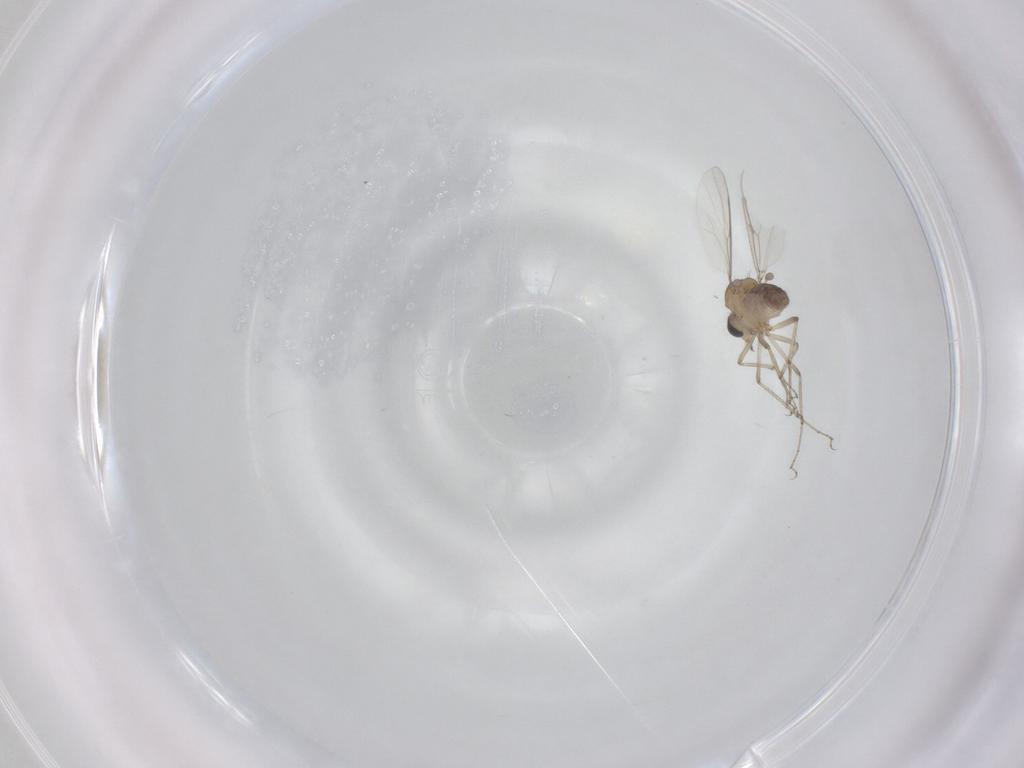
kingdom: Animalia
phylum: Arthropoda
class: Insecta
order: Diptera
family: Ceratopogonidae
